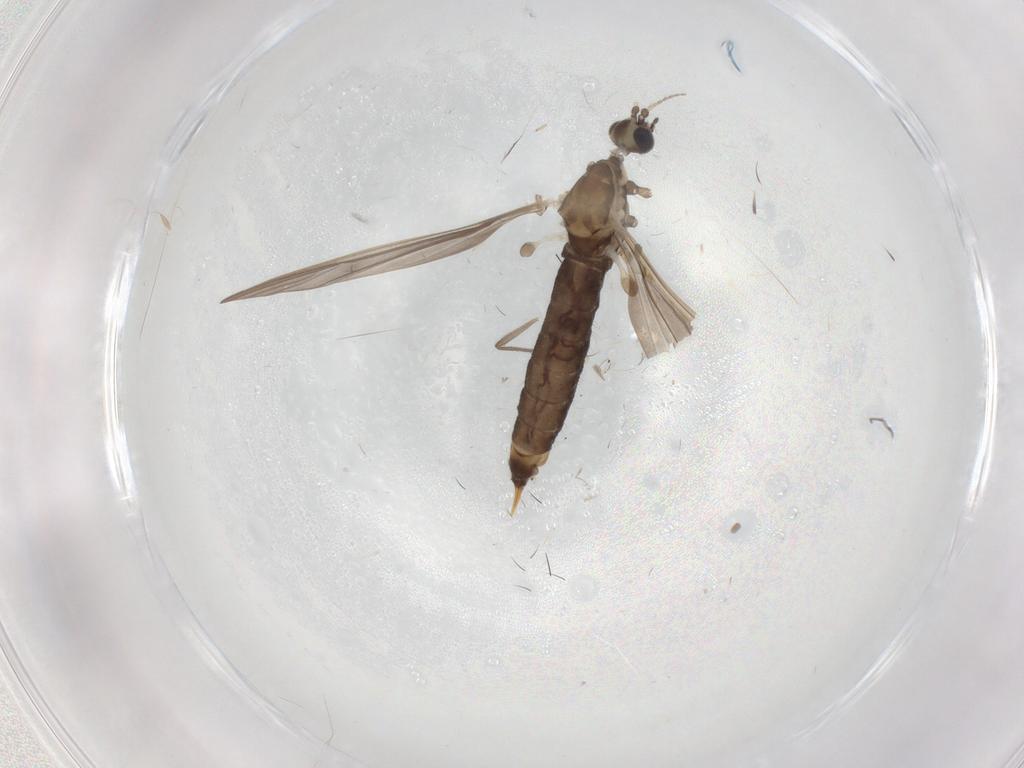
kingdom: Animalia
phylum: Arthropoda
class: Insecta
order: Diptera
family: Limoniidae
